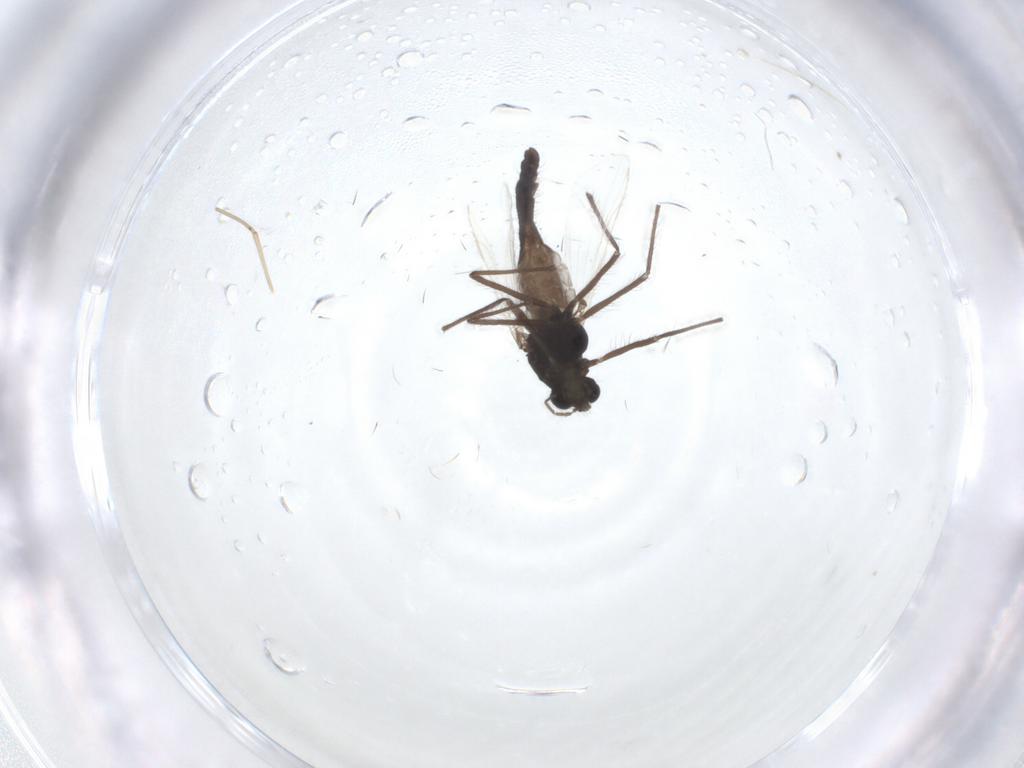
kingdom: Animalia
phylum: Arthropoda
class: Insecta
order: Diptera
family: Chironomidae
